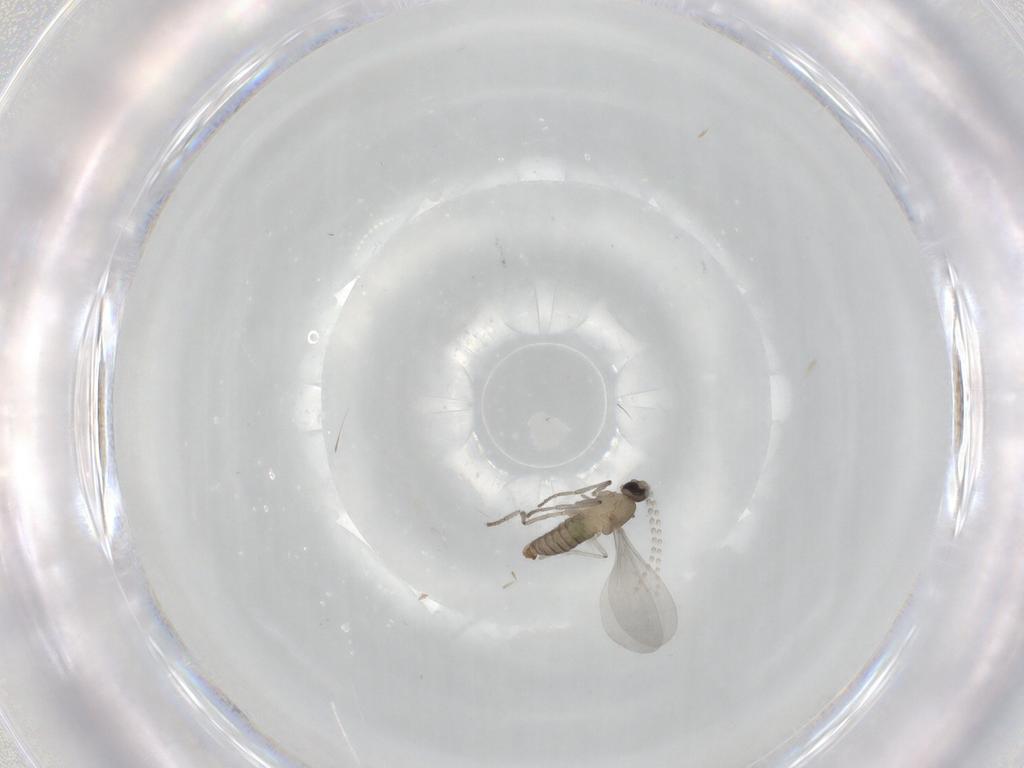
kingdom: Animalia
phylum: Arthropoda
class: Insecta
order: Diptera
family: Cecidomyiidae
